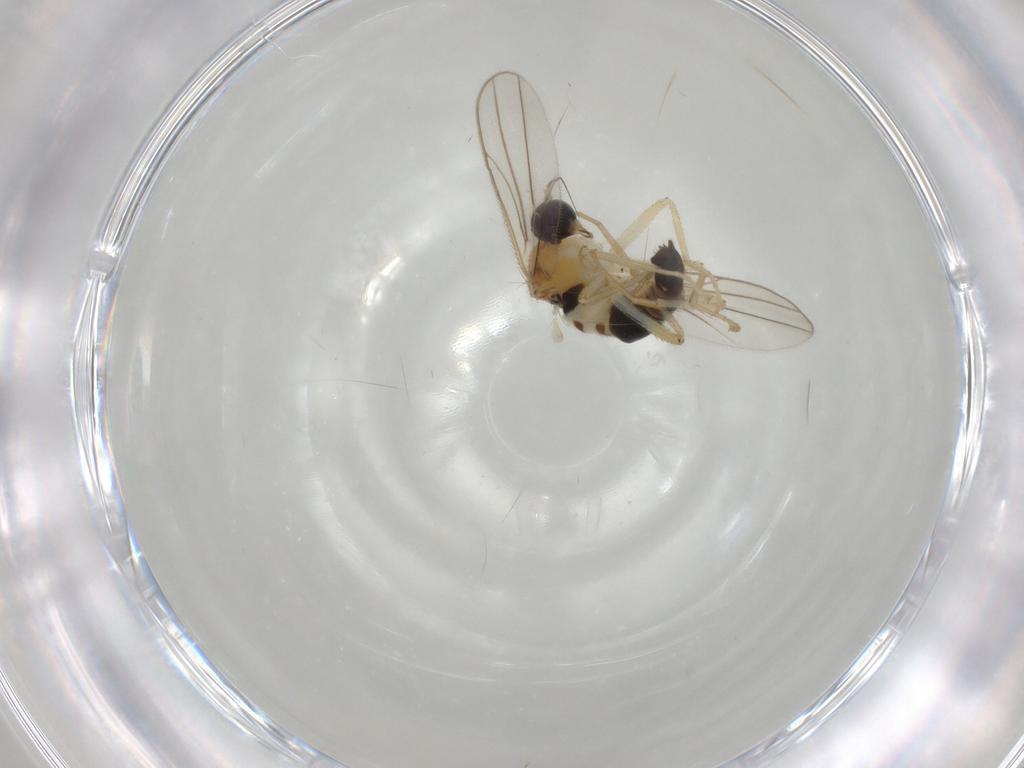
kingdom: Animalia
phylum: Arthropoda
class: Insecta
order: Diptera
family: Hybotidae
